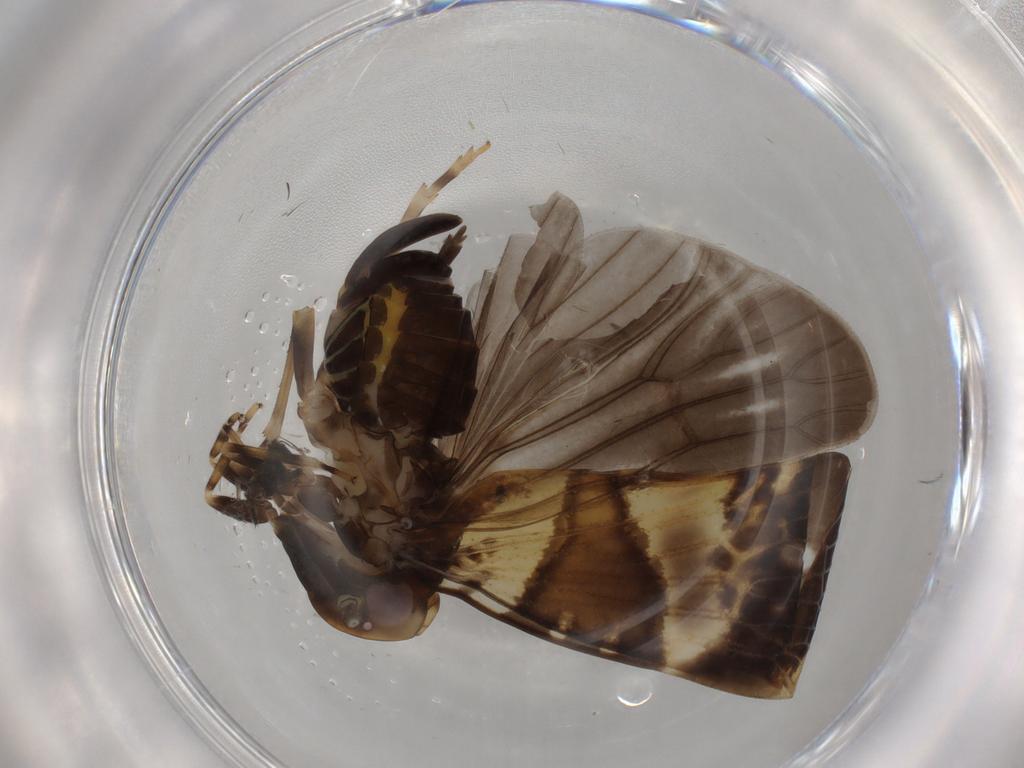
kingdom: Animalia
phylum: Arthropoda
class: Insecta
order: Hemiptera
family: Cixiidae
